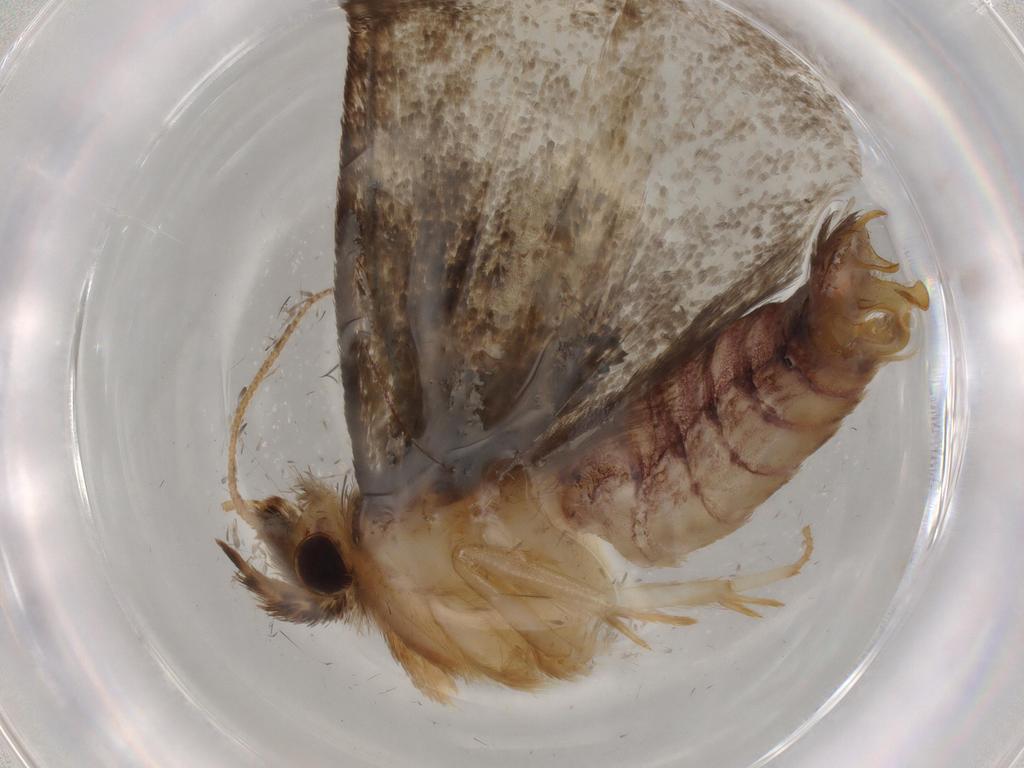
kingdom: Animalia
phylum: Arthropoda
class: Insecta
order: Lepidoptera
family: Tineidae
